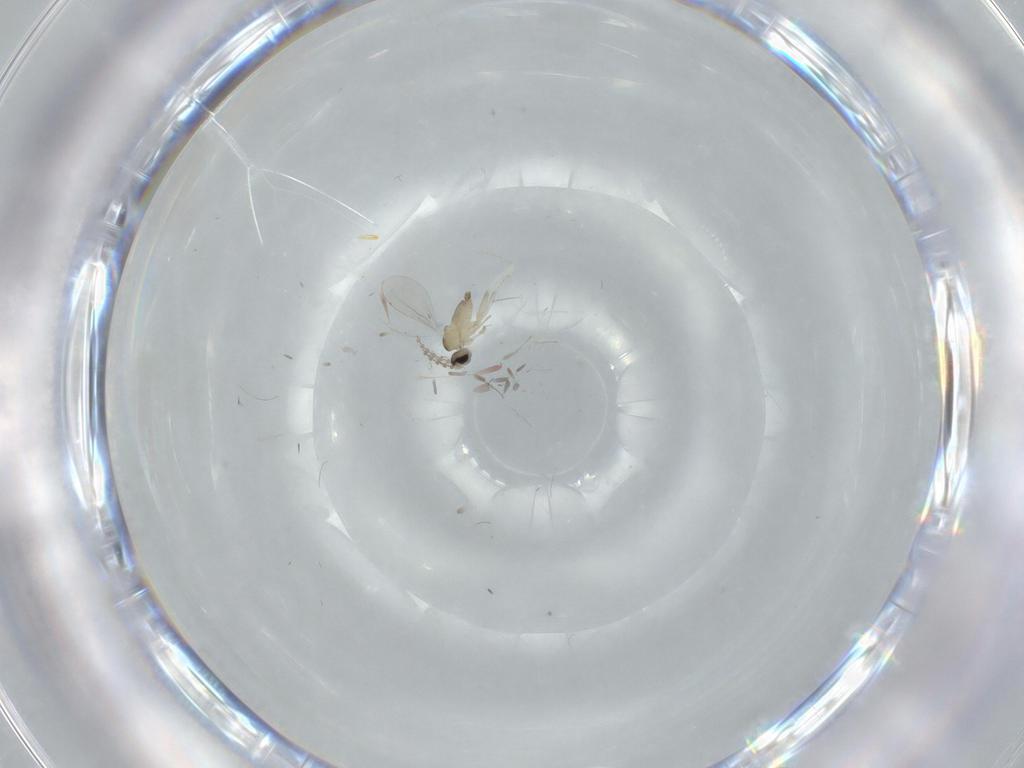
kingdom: Animalia
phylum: Arthropoda
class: Insecta
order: Diptera
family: Cecidomyiidae
